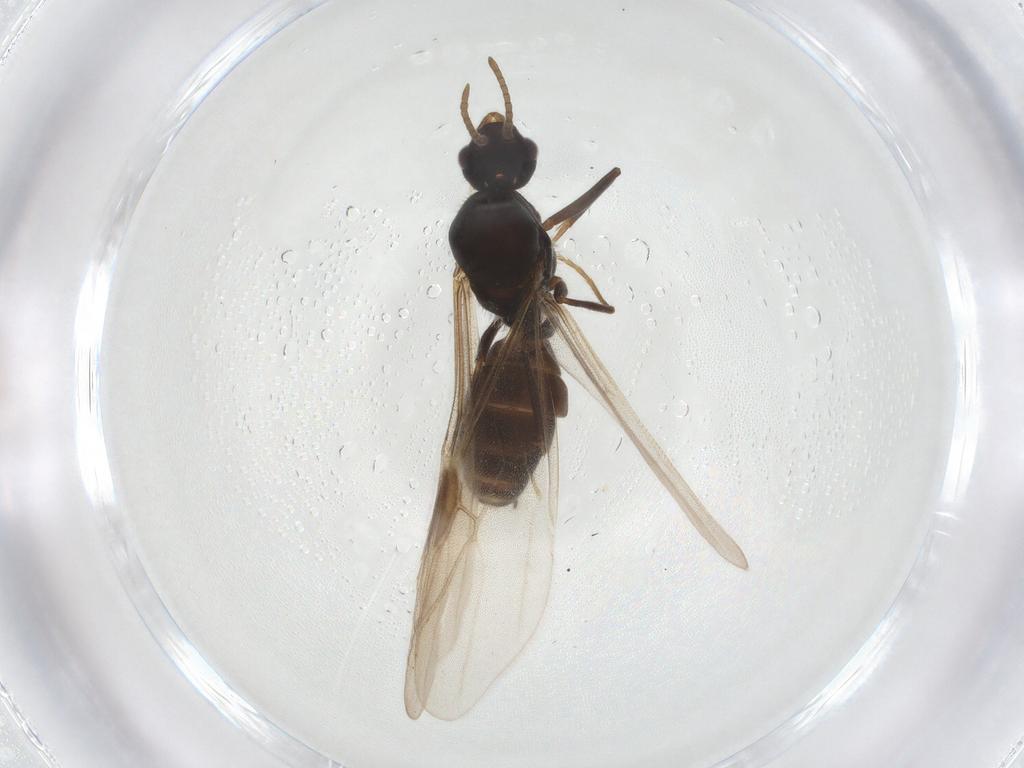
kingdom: Animalia
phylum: Arthropoda
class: Insecta
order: Hymenoptera
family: Formicidae
